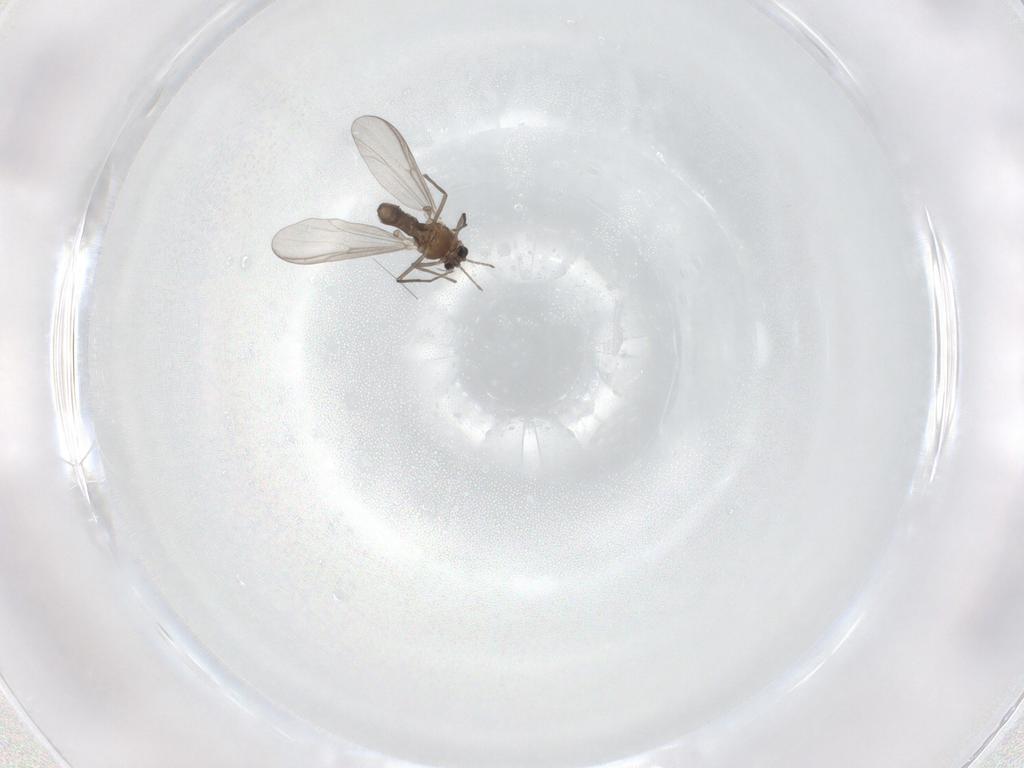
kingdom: Animalia
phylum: Arthropoda
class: Insecta
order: Diptera
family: Chironomidae
